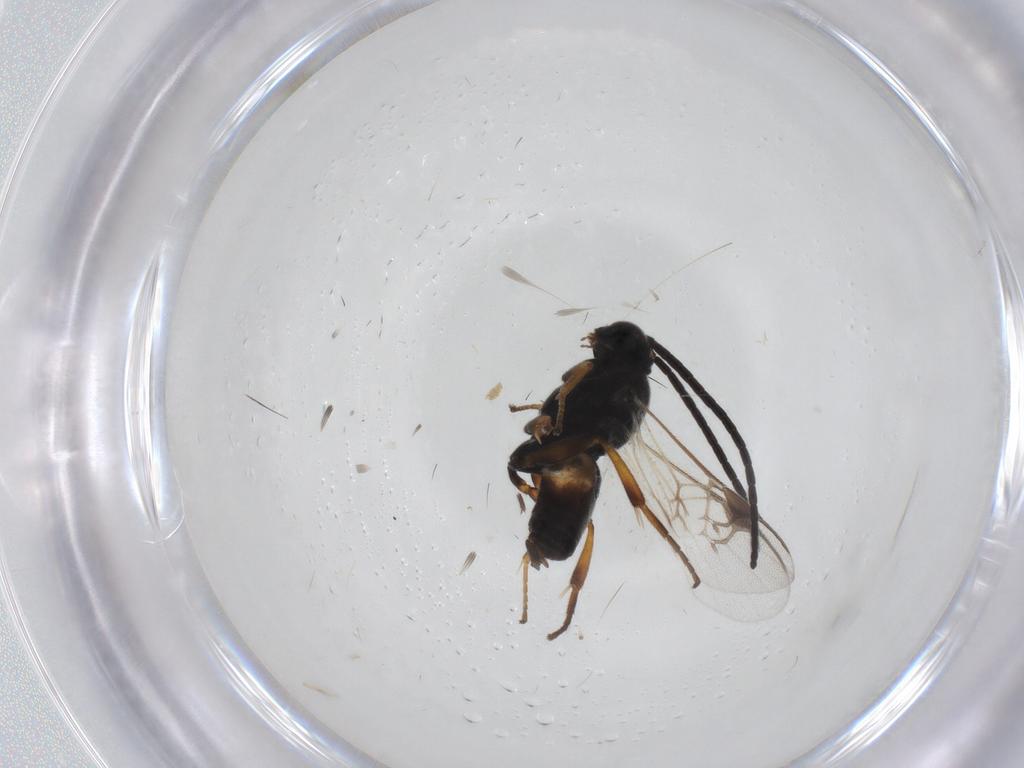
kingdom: Animalia
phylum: Arthropoda
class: Insecta
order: Hymenoptera
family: Braconidae
